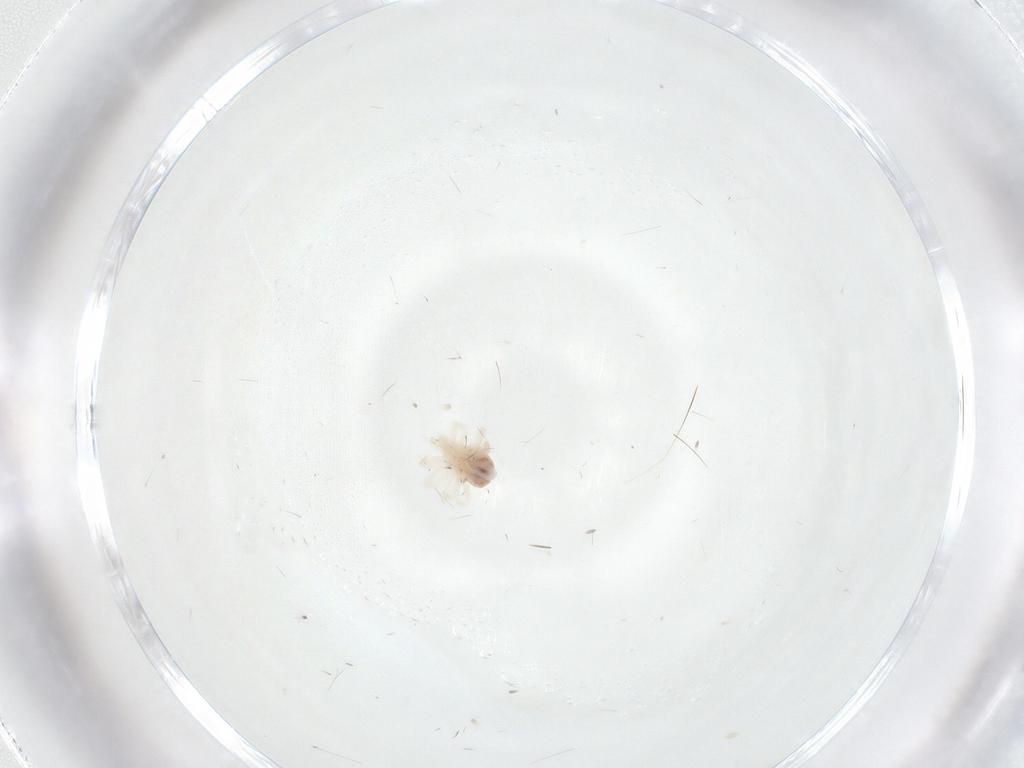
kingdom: Animalia
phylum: Arthropoda
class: Arachnida
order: Trombidiformes
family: Anystidae
